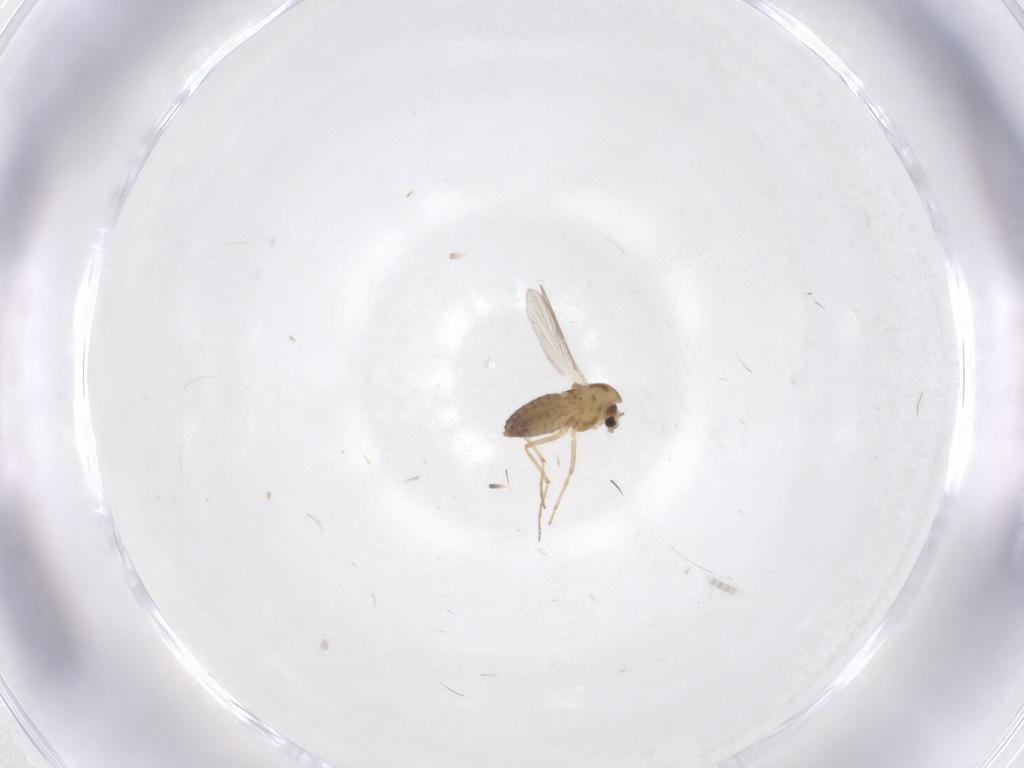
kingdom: Animalia
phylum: Arthropoda
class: Insecta
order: Diptera
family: Chironomidae
